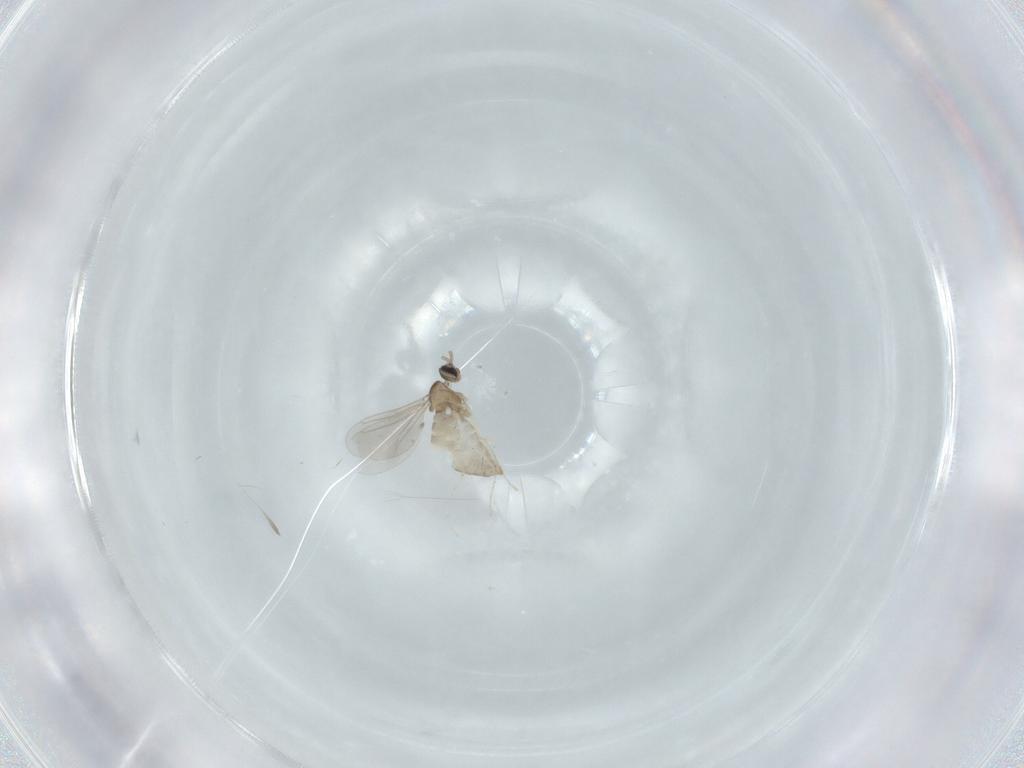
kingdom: Animalia
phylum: Arthropoda
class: Insecta
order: Diptera
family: Cecidomyiidae
